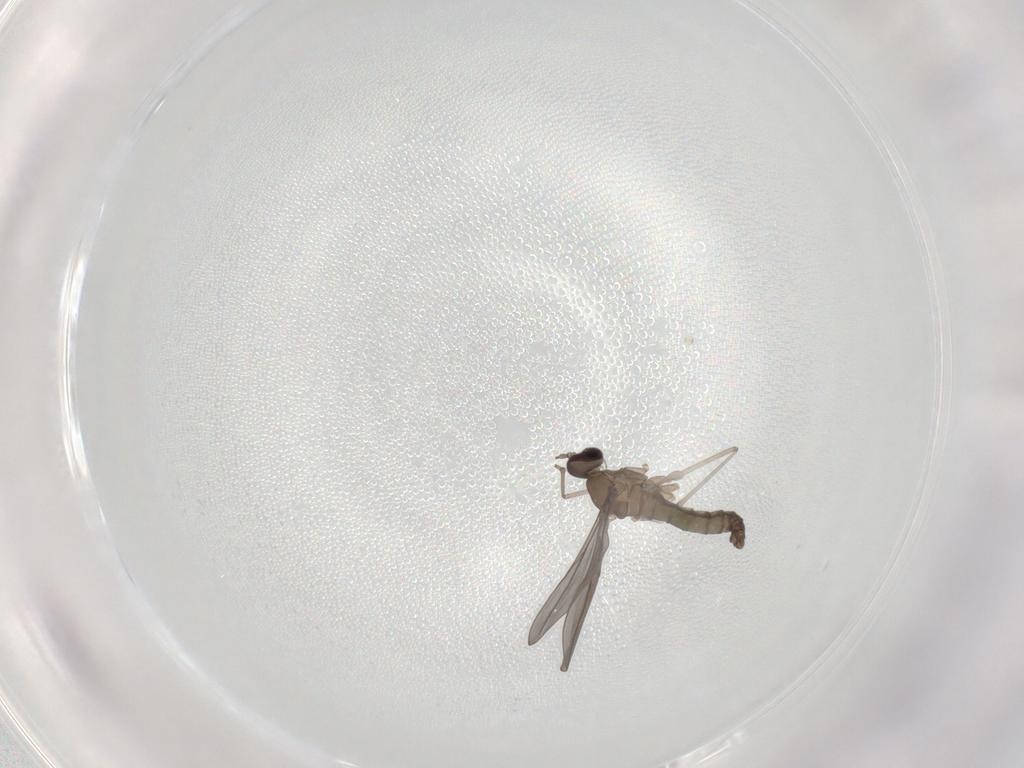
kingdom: Animalia
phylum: Arthropoda
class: Insecta
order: Diptera
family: Cecidomyiidae
